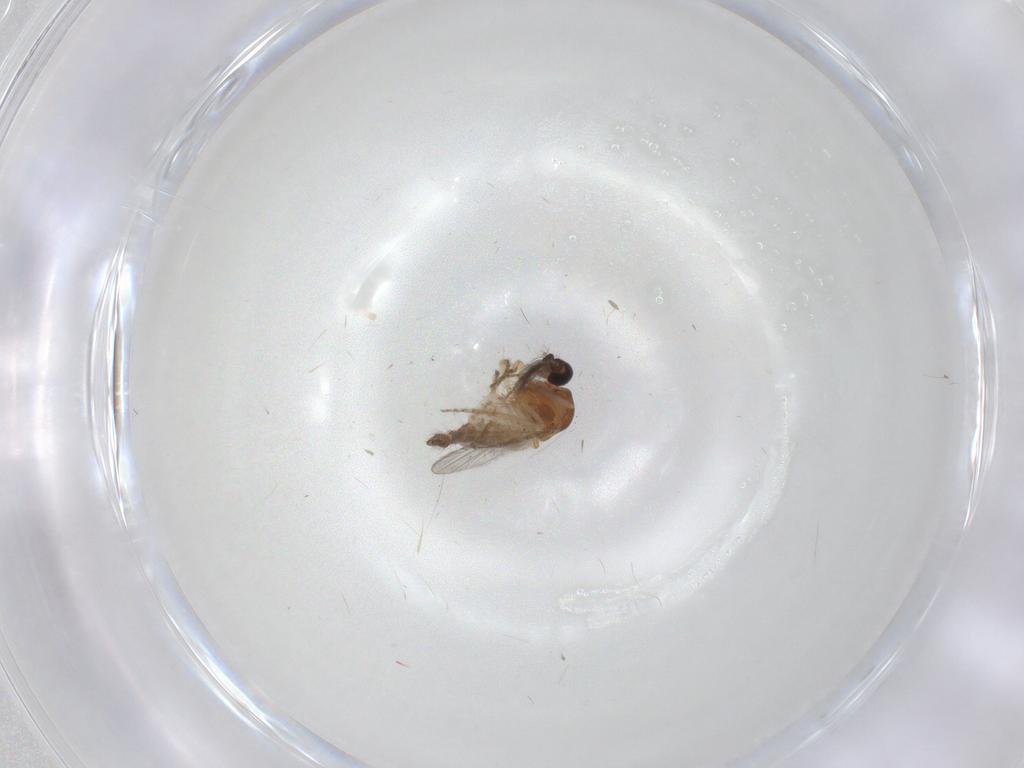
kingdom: Animalia
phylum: Arthropoda
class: Insecta
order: Diptera
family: Ceratopogonidae
